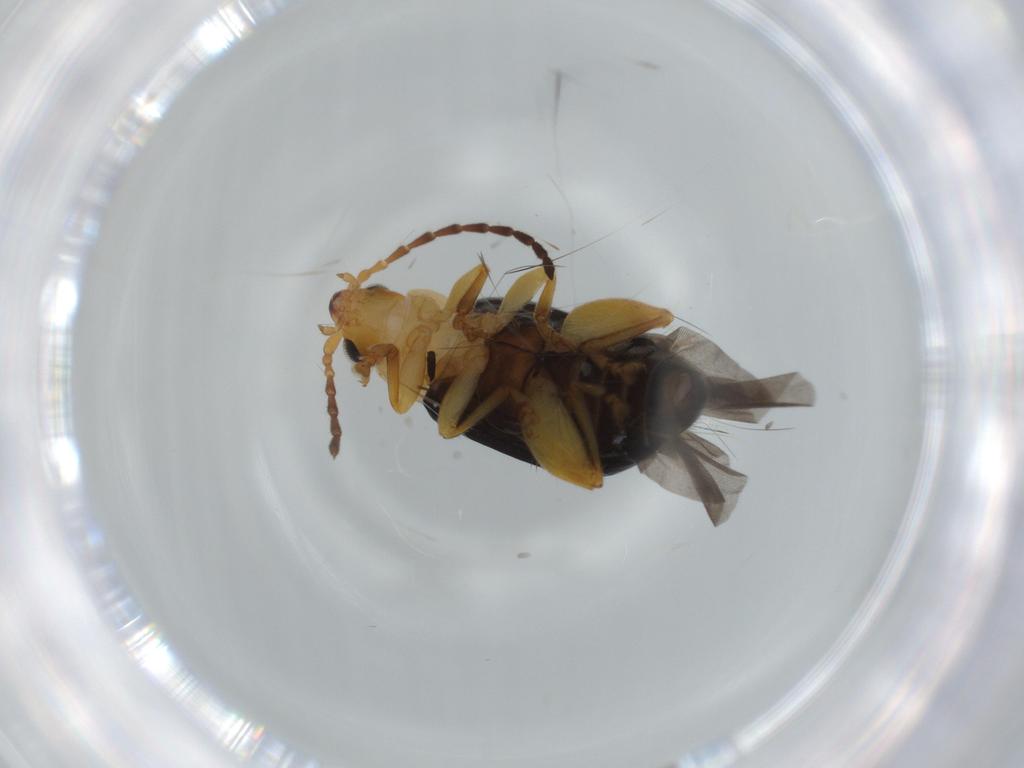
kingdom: Animalia
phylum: Arthropoda
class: Insecta
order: Coleoptera
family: Chrysomelidae
